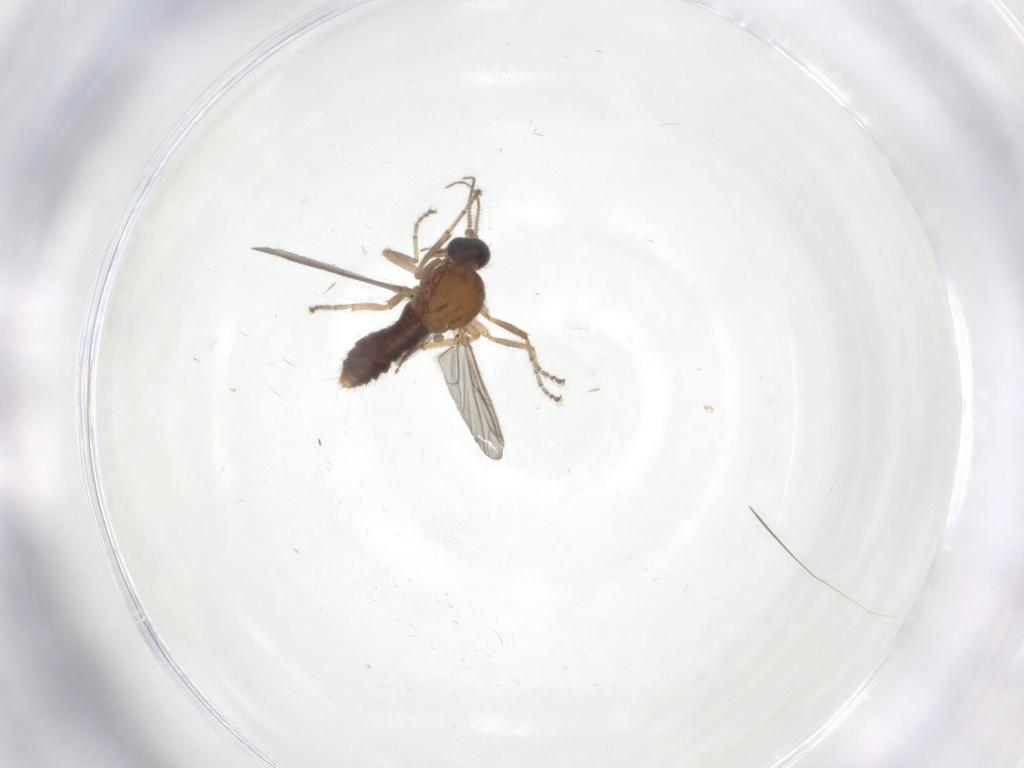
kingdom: Animalia
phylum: Arthropoda
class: Insecta
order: Diptera
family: Ceratopogonidae
